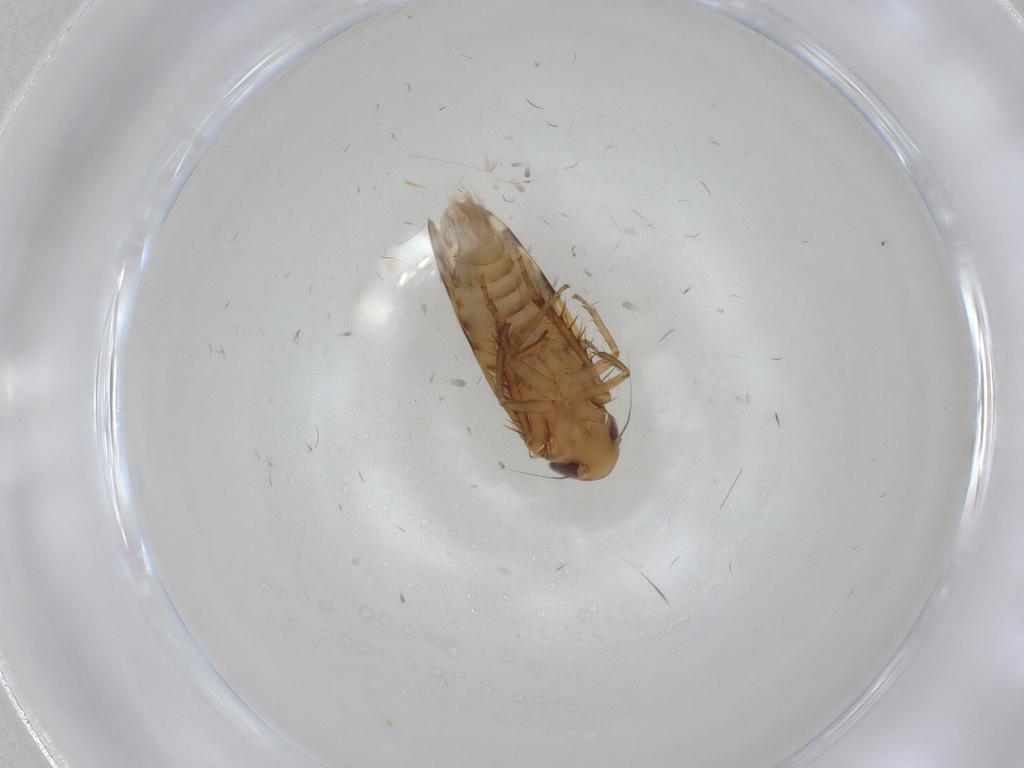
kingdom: Animalia
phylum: Arthropoda
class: Insecta
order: Hemiptera
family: Cicadellidae
